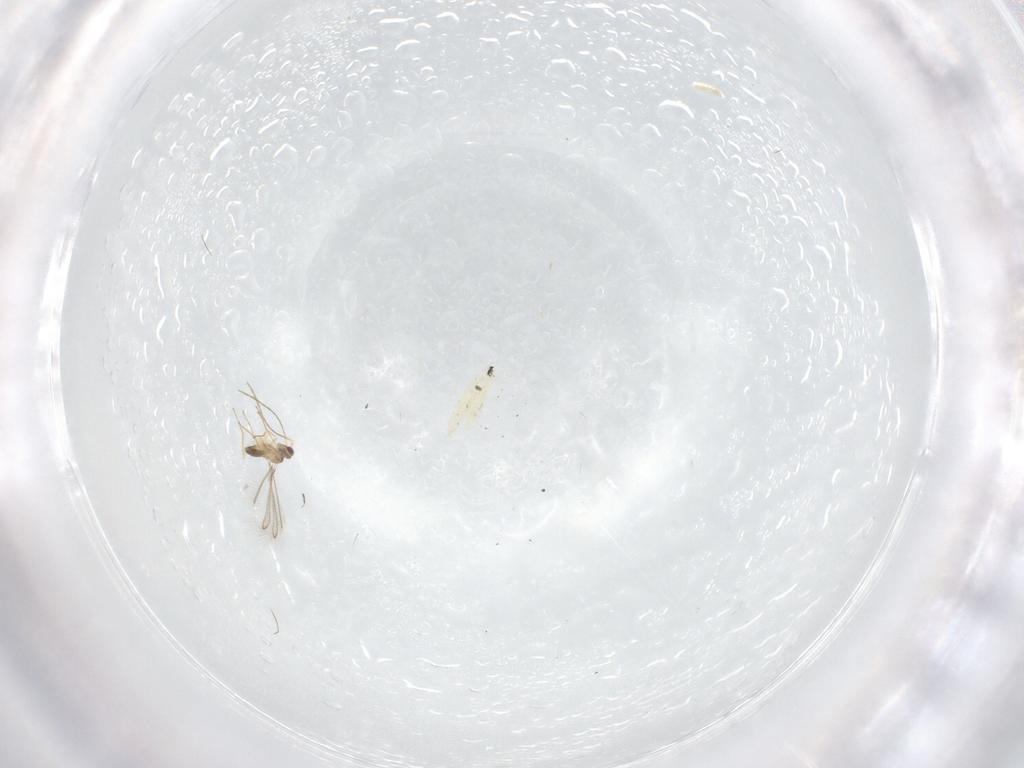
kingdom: Animalia
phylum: Arthropoda
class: Insecta
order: Hymenoptera
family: Mymaridae
